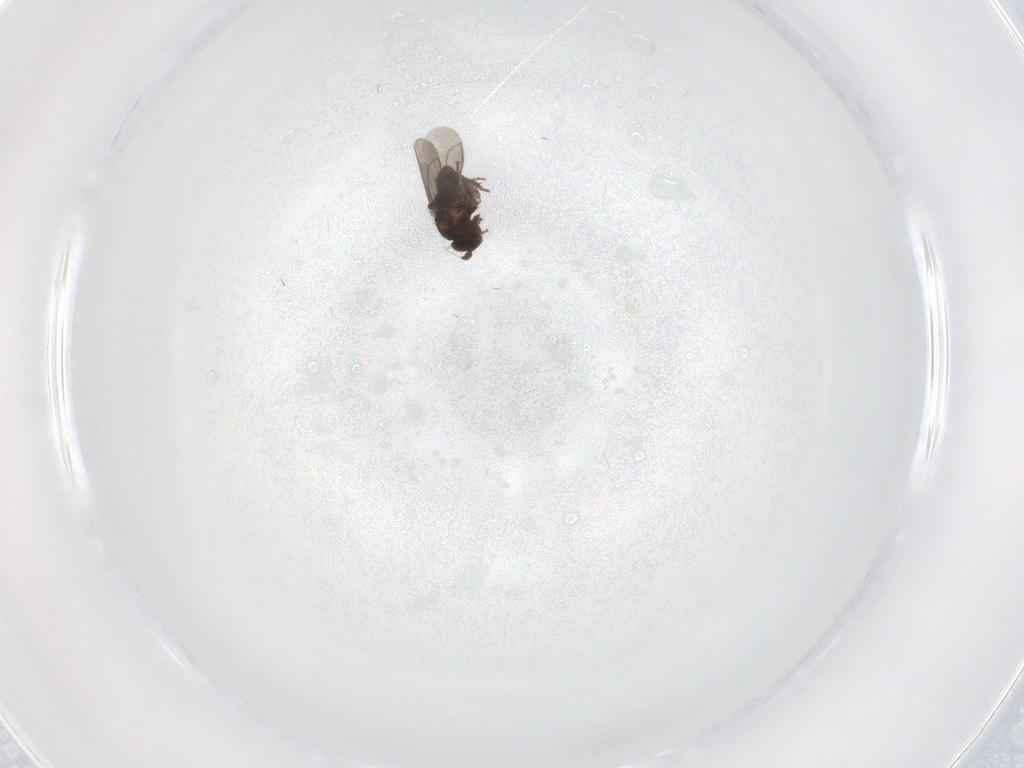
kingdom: Animalia
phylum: Arthropoda
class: Insecta
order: Diptera
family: Sphaeroceridae
